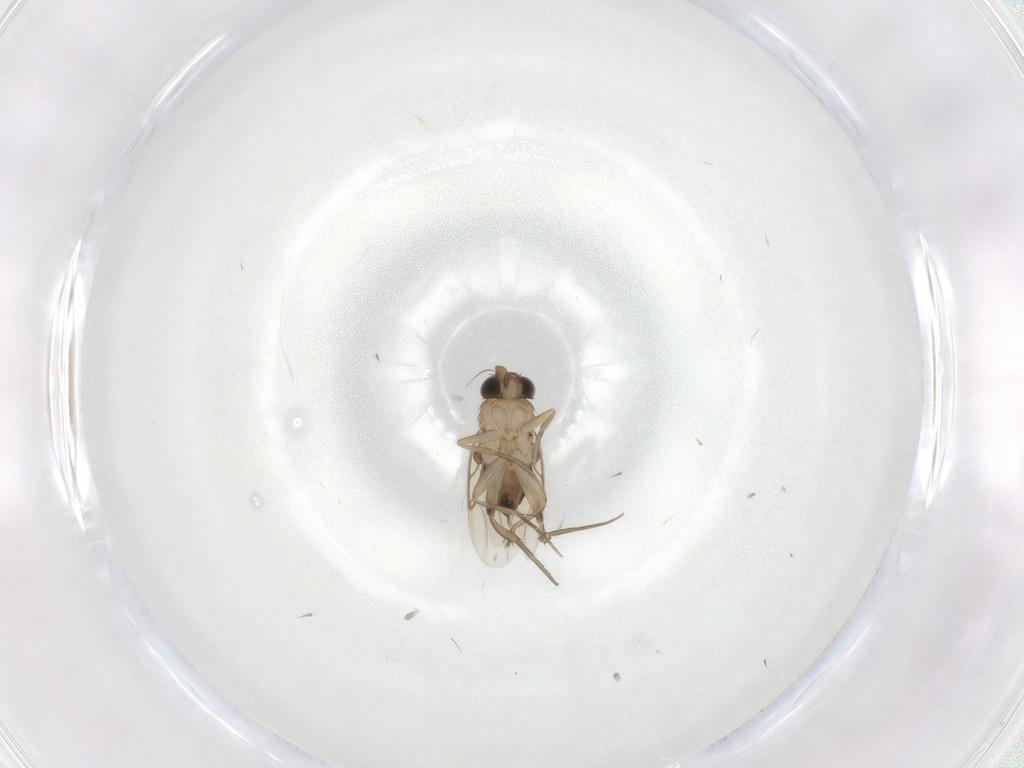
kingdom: Animalia
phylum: Arthropoda
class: Insecta
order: Diptera
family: Phoridae
